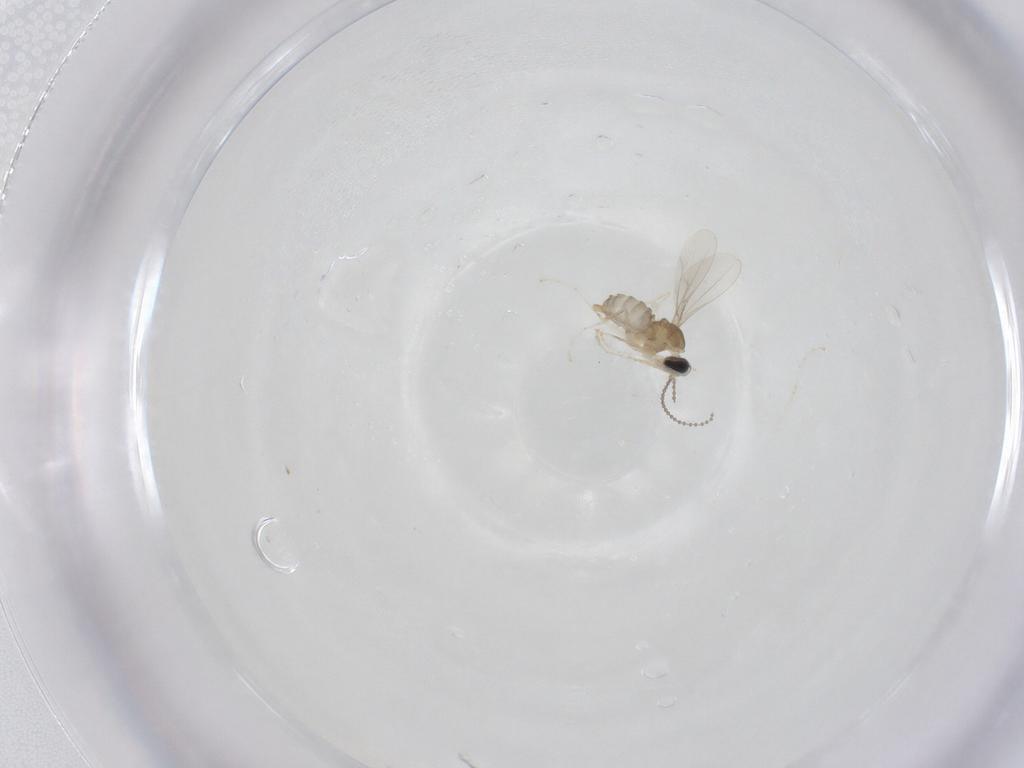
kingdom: Animalia
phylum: Arthropoda
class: Insecta
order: Diptera
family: Cecidomyiidae
